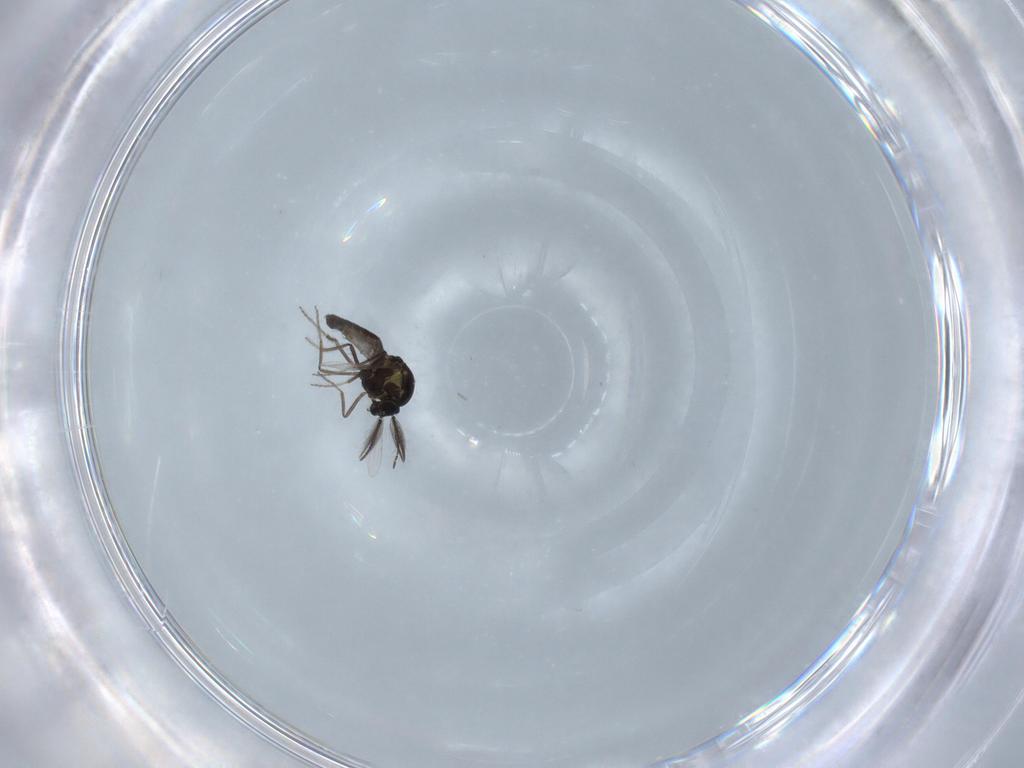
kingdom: Animalia
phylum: Arthropoda
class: Insecta
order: Diptera
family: Ceratopogonidae
